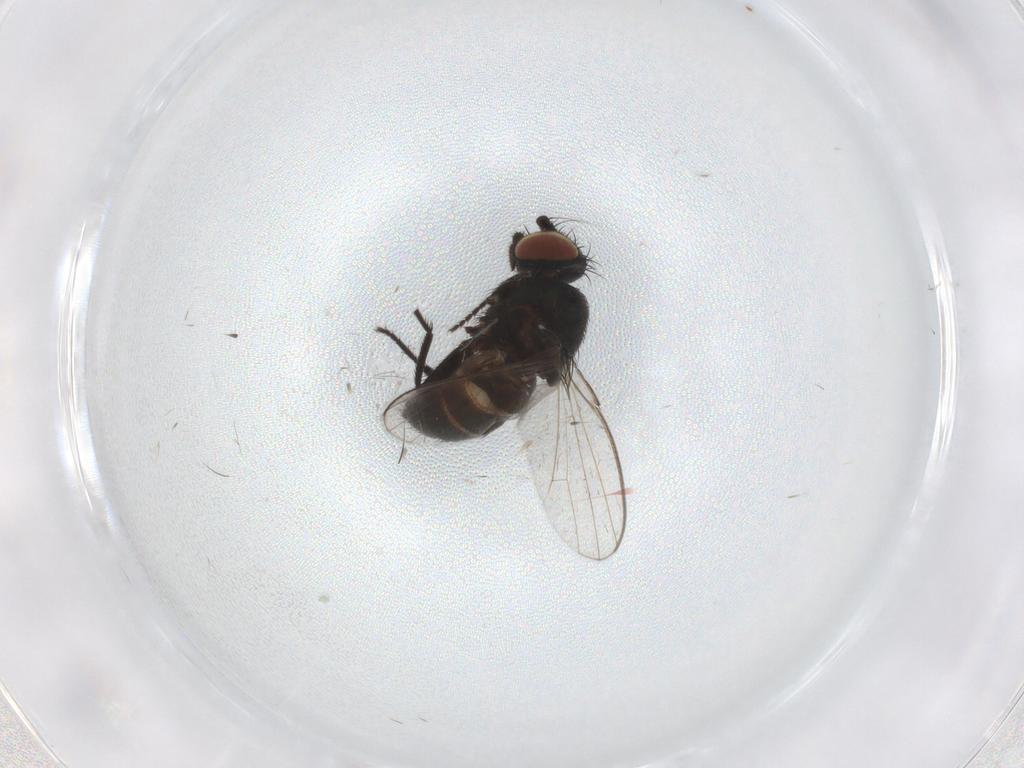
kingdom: Animalia
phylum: Arthropoda
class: Insecta
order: Diptera
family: Milichiidae
